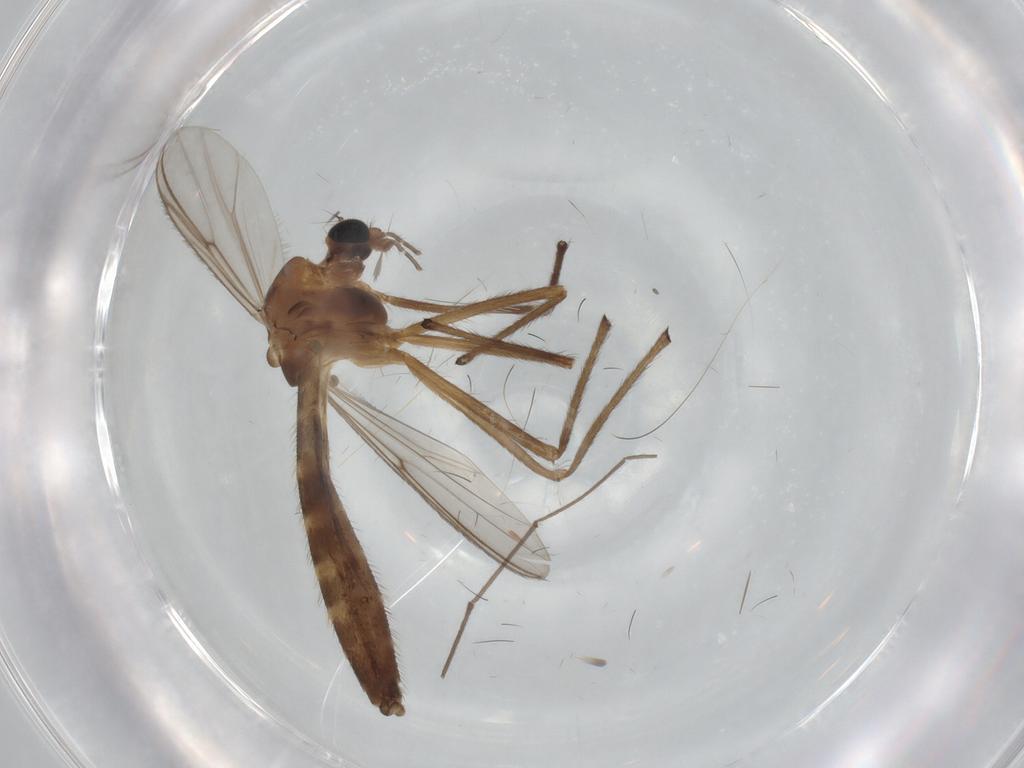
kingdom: Animalia
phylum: Arthropoda
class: Insecta
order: Diptera
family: Chironomidae
